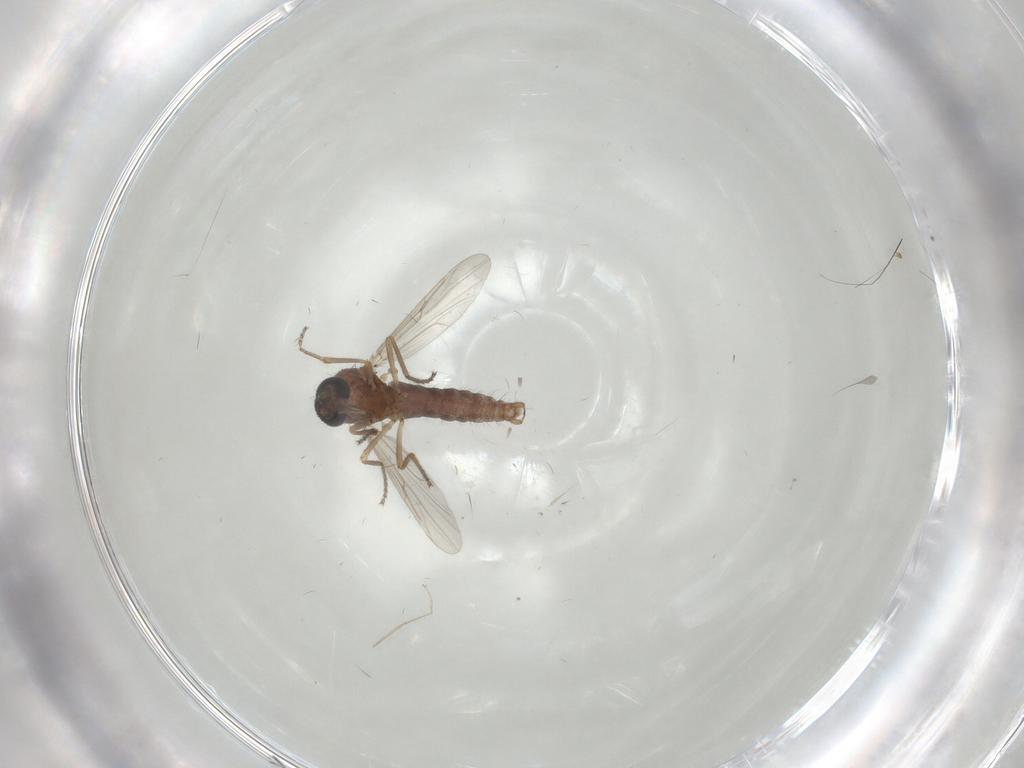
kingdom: Animalia
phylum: Arthropoda
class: Insecta
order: Diptera
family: Cecidomyiidae
